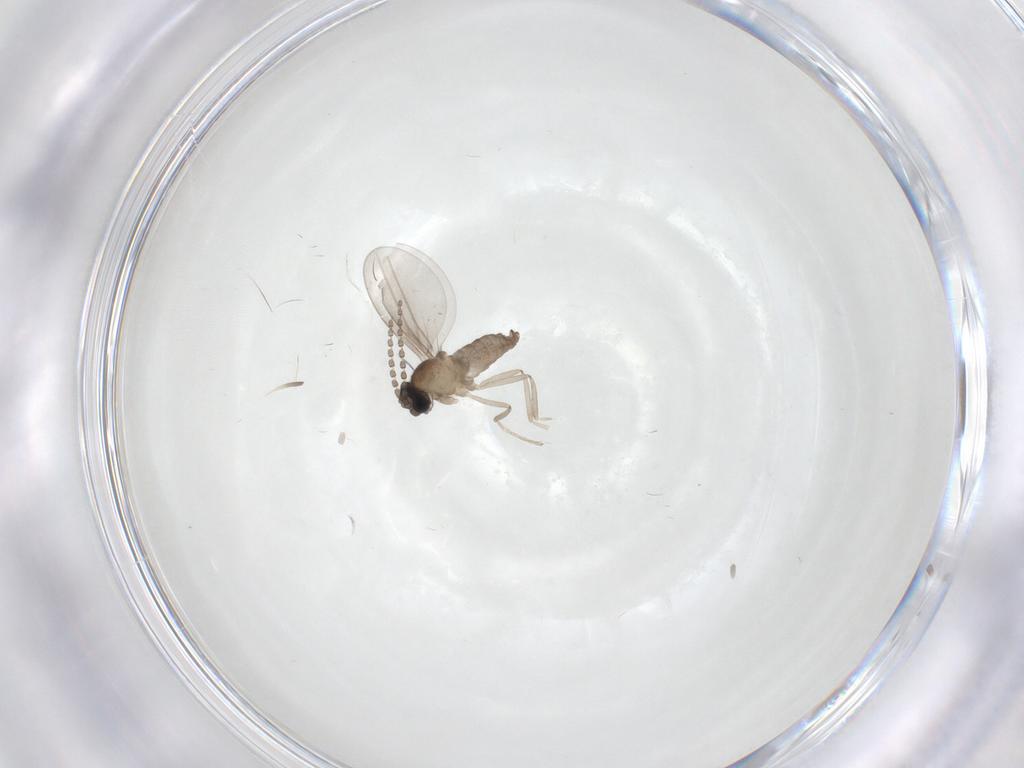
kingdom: Animalia
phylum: Arthropoda
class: Insecta
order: Diptera
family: Cecidomyiidae
